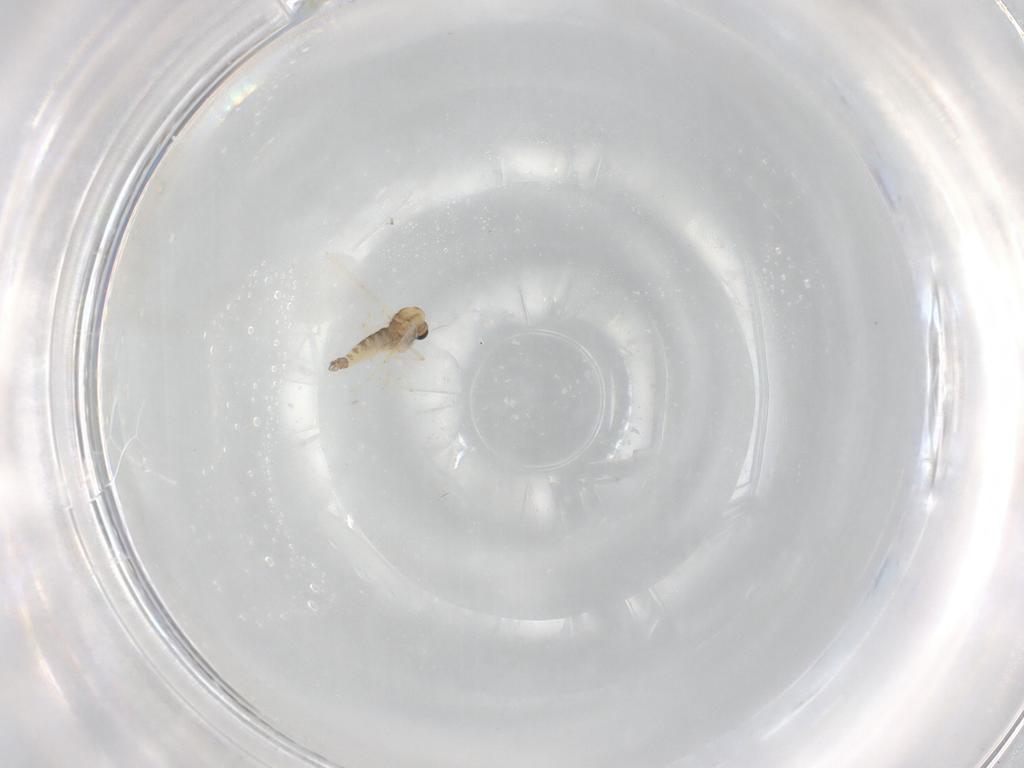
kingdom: Animalia
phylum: Arthropoda
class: Insecta
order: Diptera
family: Chironomidae
